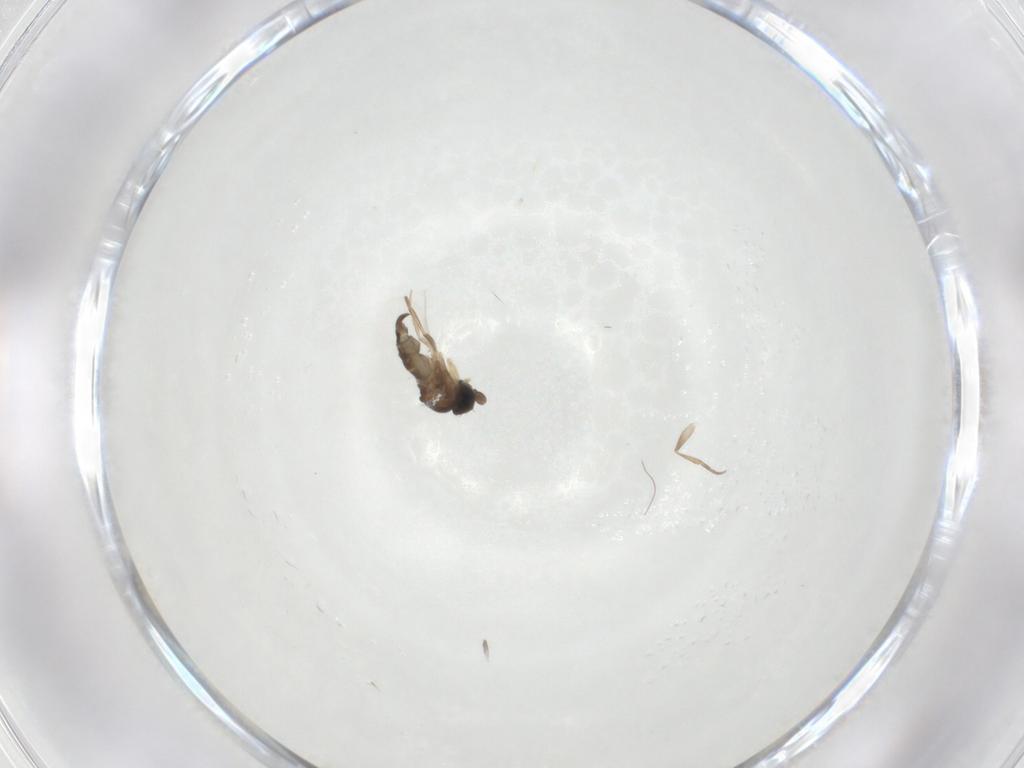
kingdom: Animalia
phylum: Arthropoda
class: Insecta
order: Diptera
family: Phoridae
